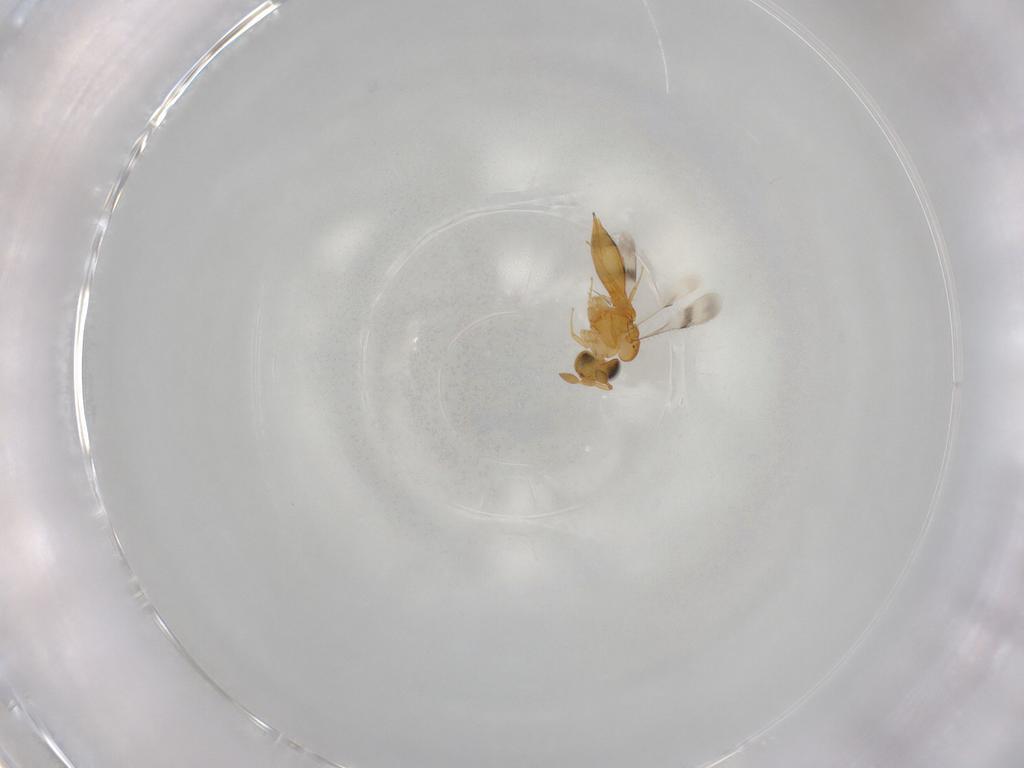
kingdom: Animalia
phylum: Arthropoda
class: Insecta
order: Hymenoptera
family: Scelionidae
